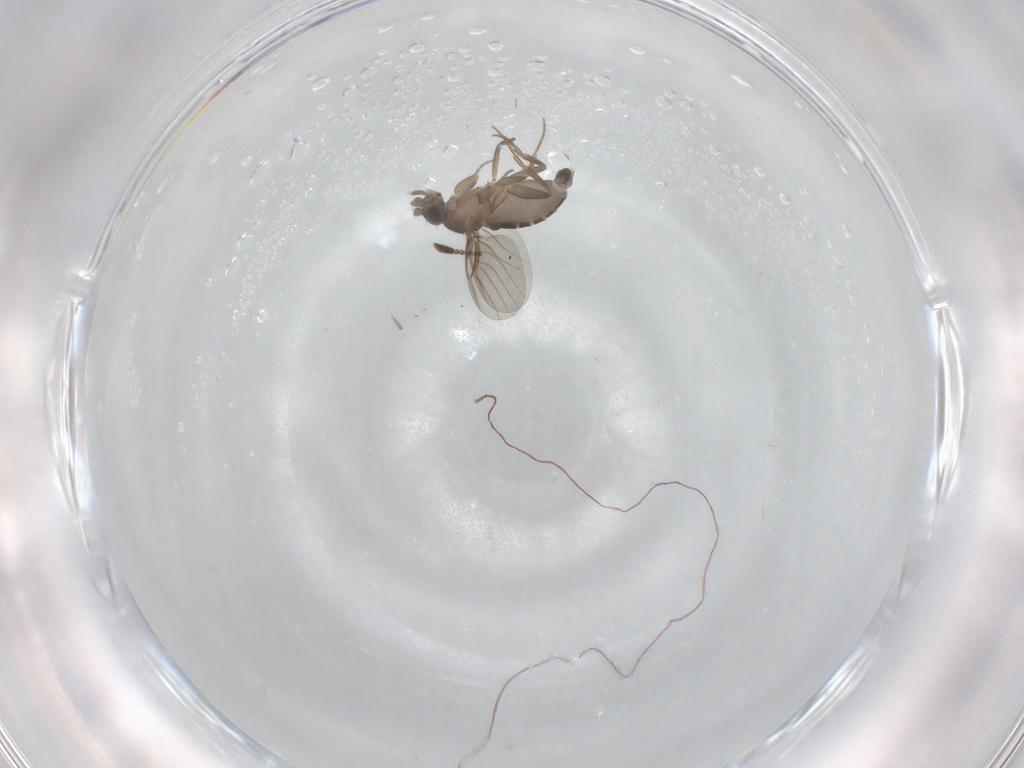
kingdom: Animalia
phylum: Arthropoda
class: Insecta
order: Diptera
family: Phoridae
